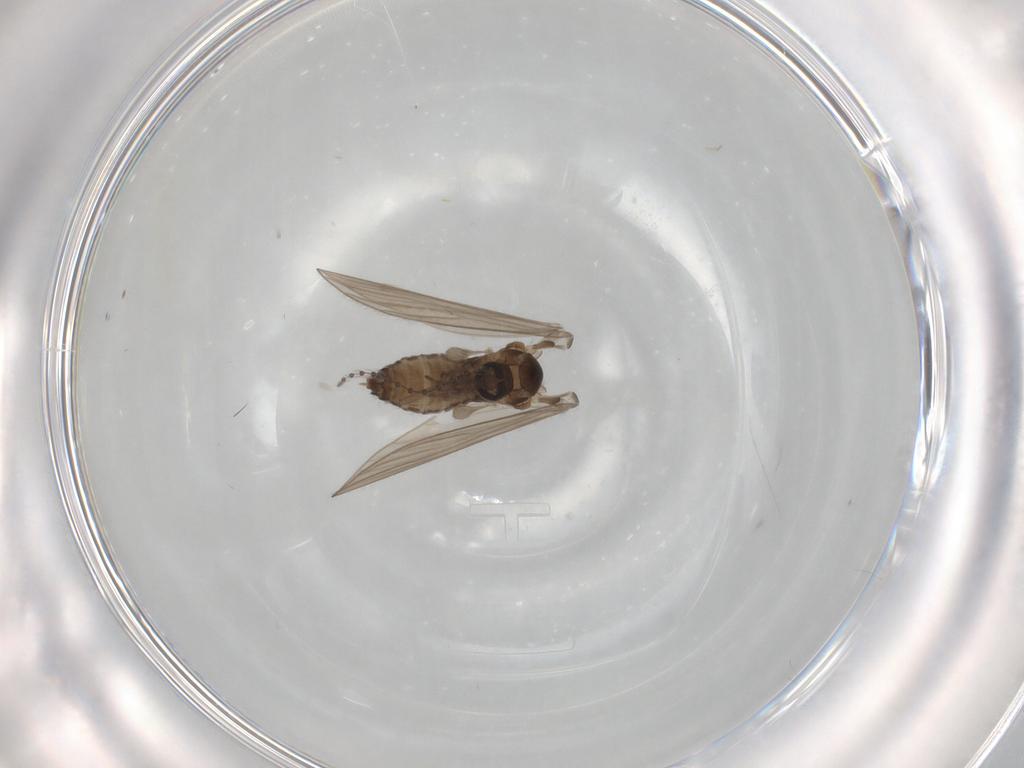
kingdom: Animalia
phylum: Arthropoda
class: Insecta
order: Diptera
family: Psychodidae
